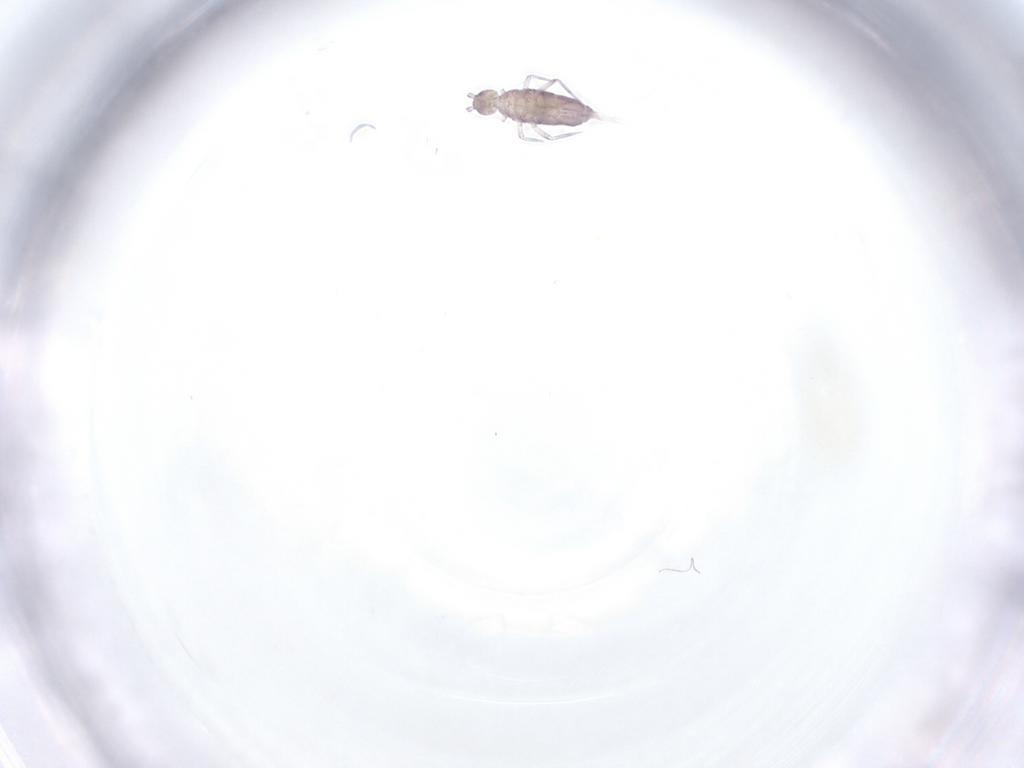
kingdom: Animalia
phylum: Arthropoda
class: Collembola
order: Entomobryomorpha
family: Entomobryidae
